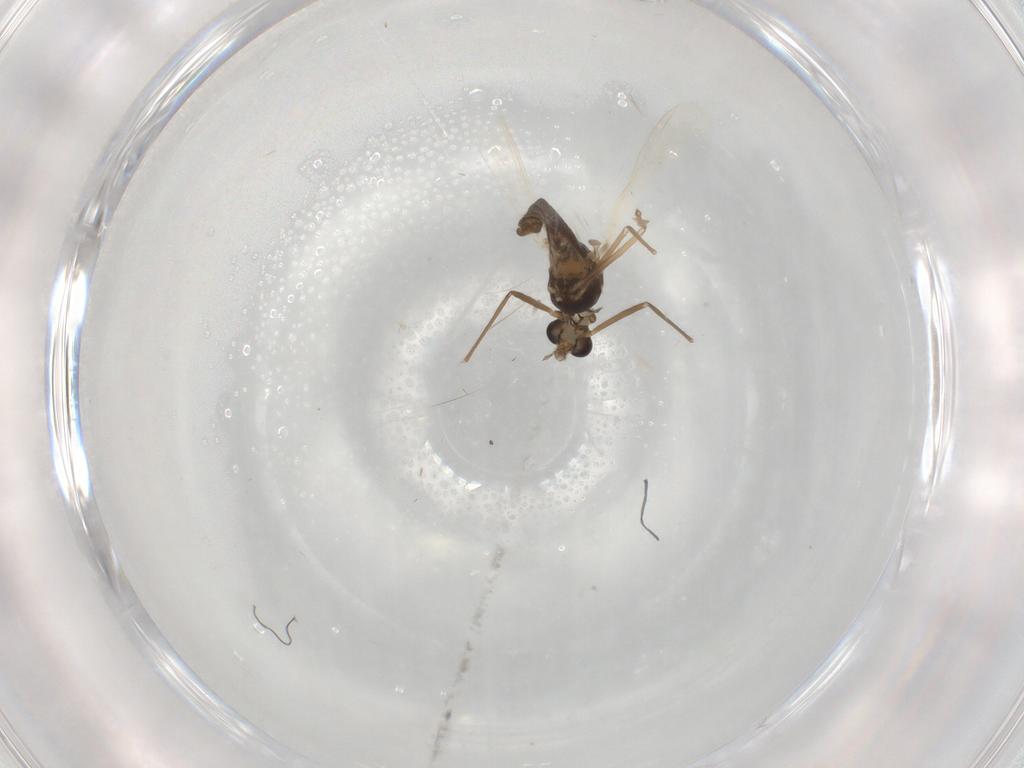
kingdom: Animalia
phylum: Arthropoda
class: Insecta
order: Diptera
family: Chironomidae
